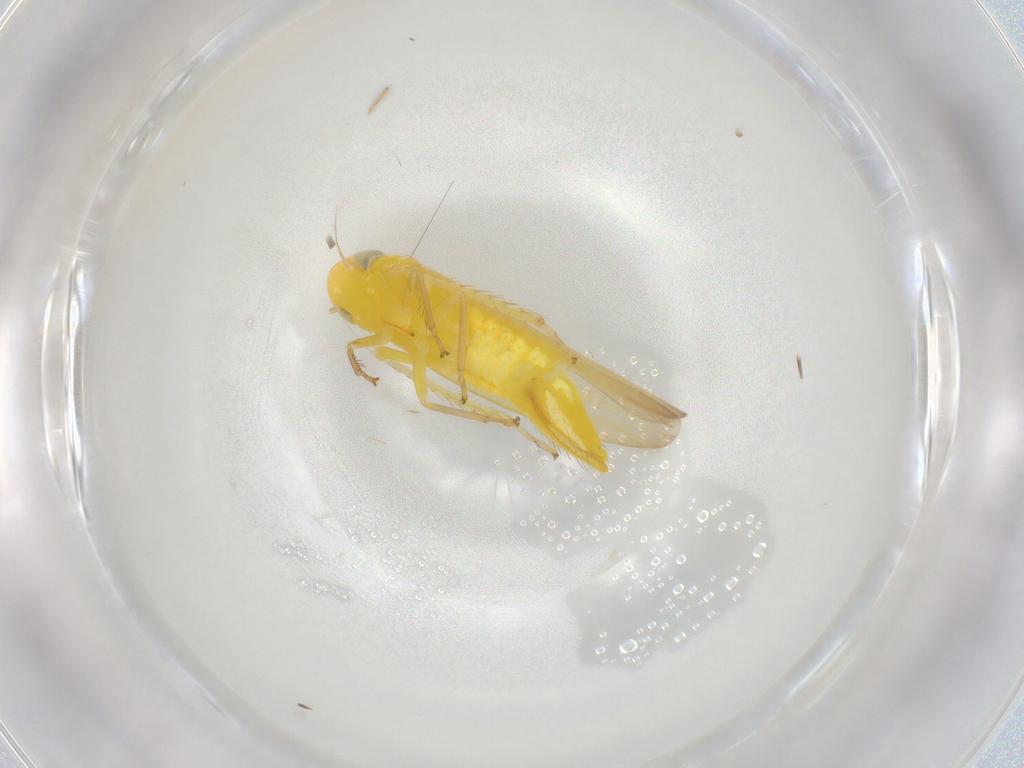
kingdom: Animalia
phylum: Arthropoda
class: Insecta
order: Hemiptera
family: Cicadellidae
